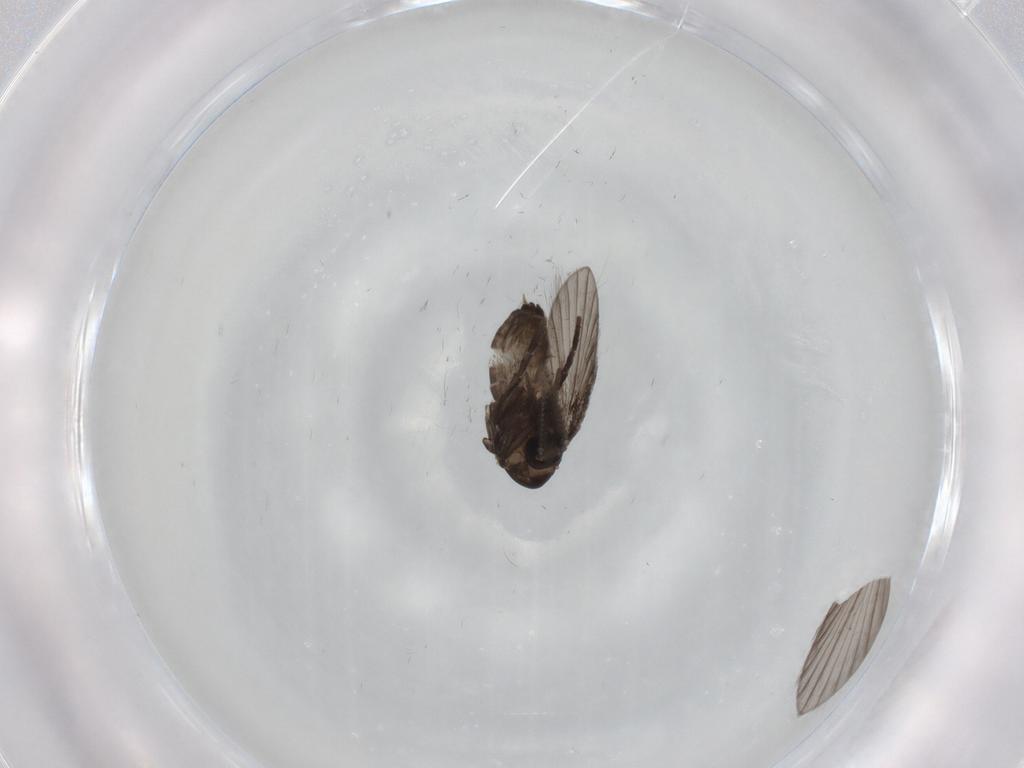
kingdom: Animalia
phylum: Arthropoda
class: Insecta
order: Diptera
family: Psychodidae
